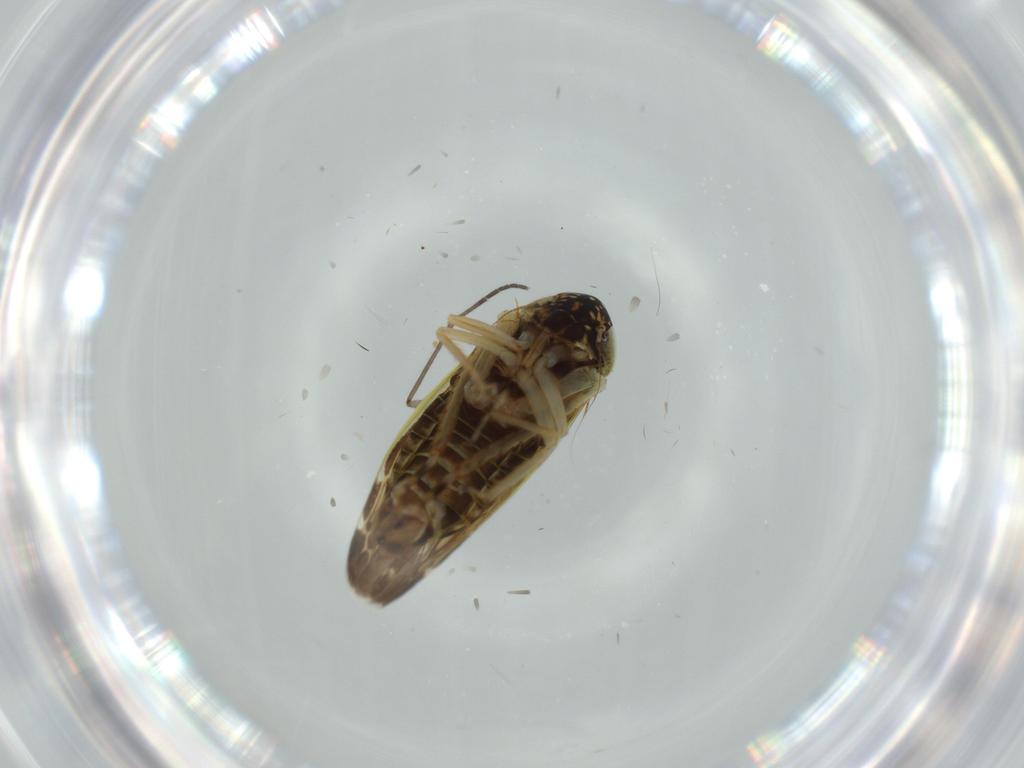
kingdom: Animalia
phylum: Arthropoda
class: Insecta
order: Hemiptera
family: Cicadellidae
